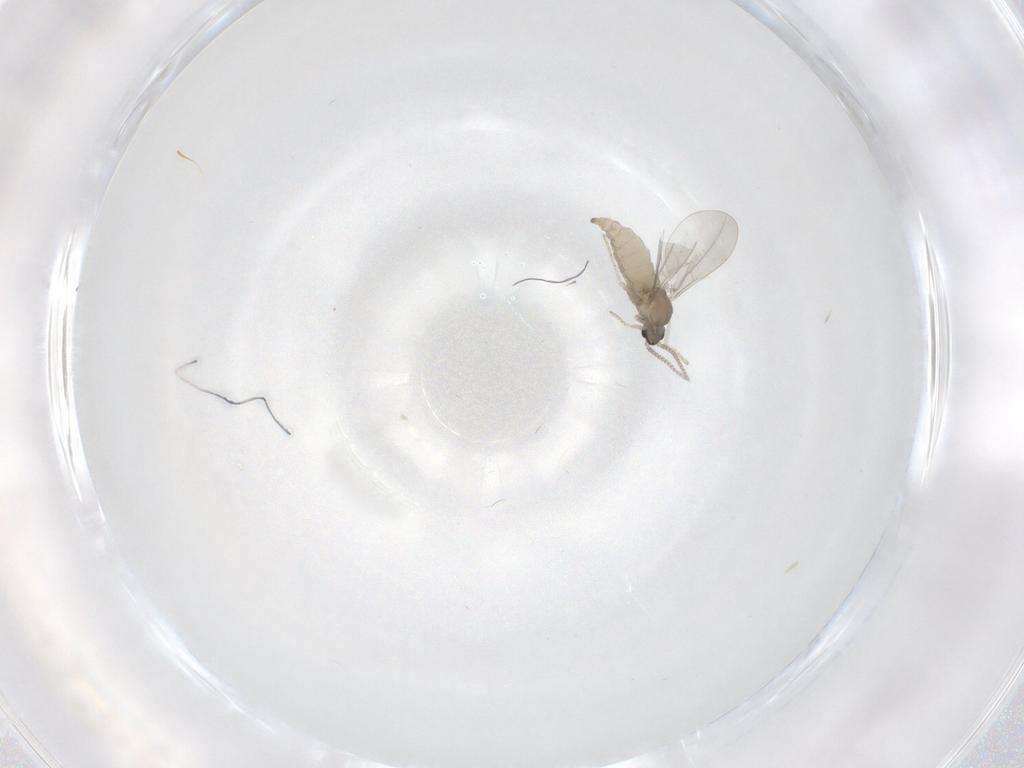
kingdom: Animalia
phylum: Arthropoda
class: Insecta
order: Diptera
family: Cecidomyiidae
